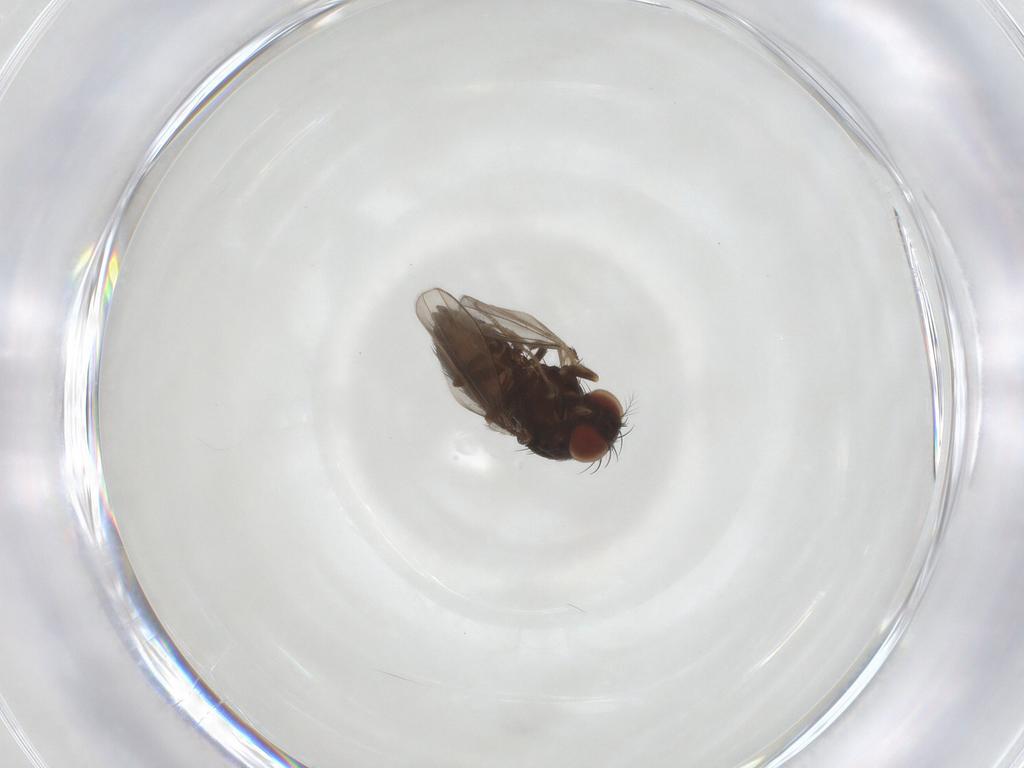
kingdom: Animalia
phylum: Arthropoda
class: Insecta
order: Diptera
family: Drosophilidae
